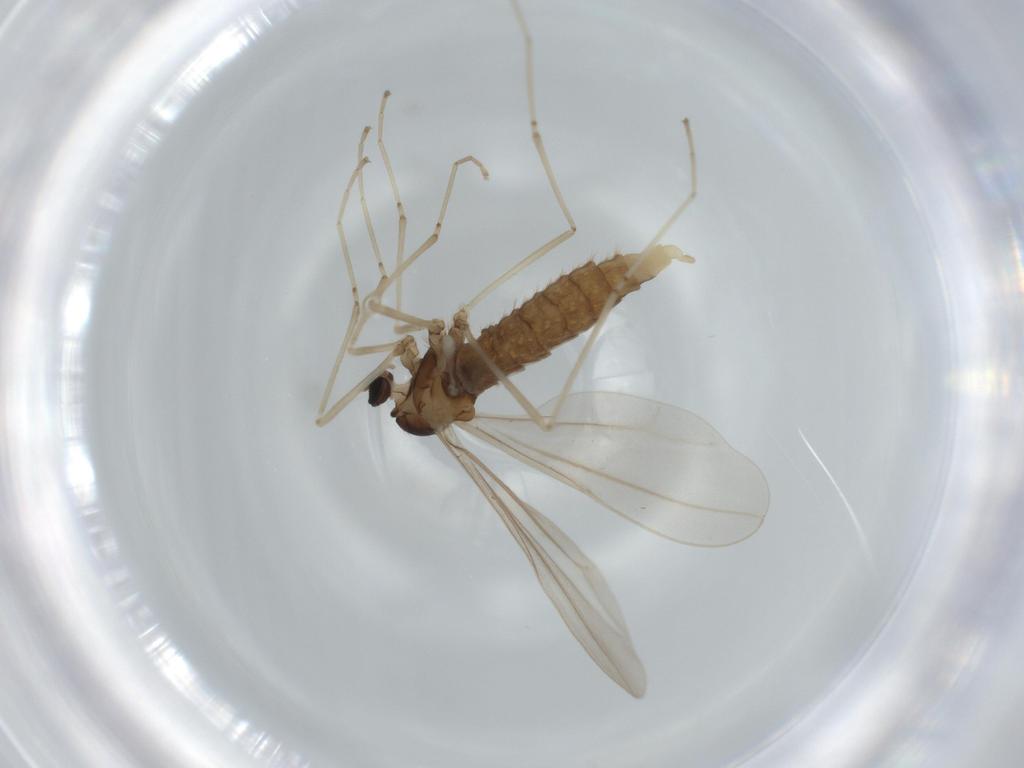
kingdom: Animalia
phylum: Arthropoda
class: Insecta
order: Diptera
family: Cecidomyiidae
